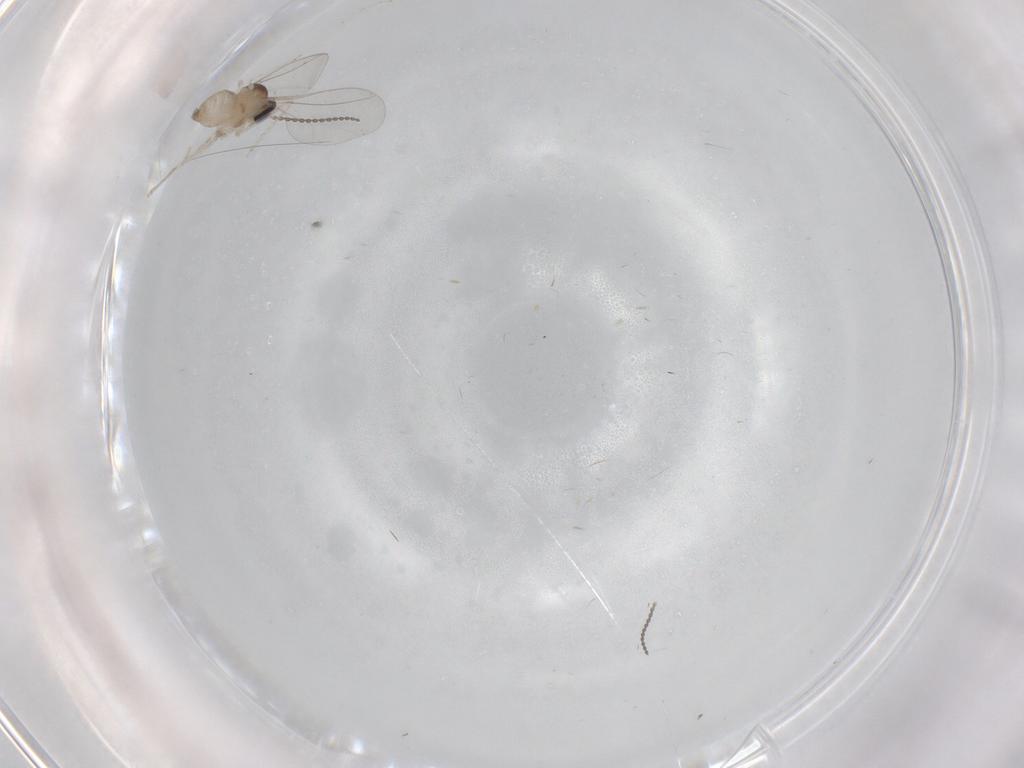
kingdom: Animalia
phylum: Arthropoda
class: Insecta
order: Diptera
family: Cecidomyiidae
